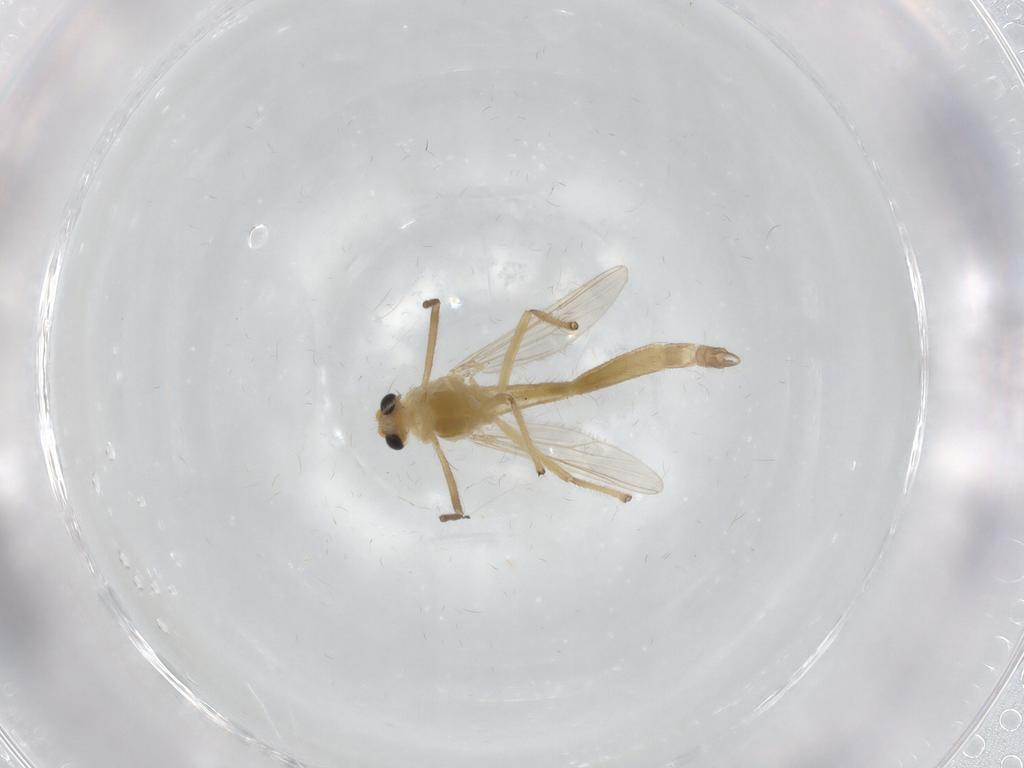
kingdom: Animalia
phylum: Arthropoda
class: Insecta
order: Diptera
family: Chironomidae
